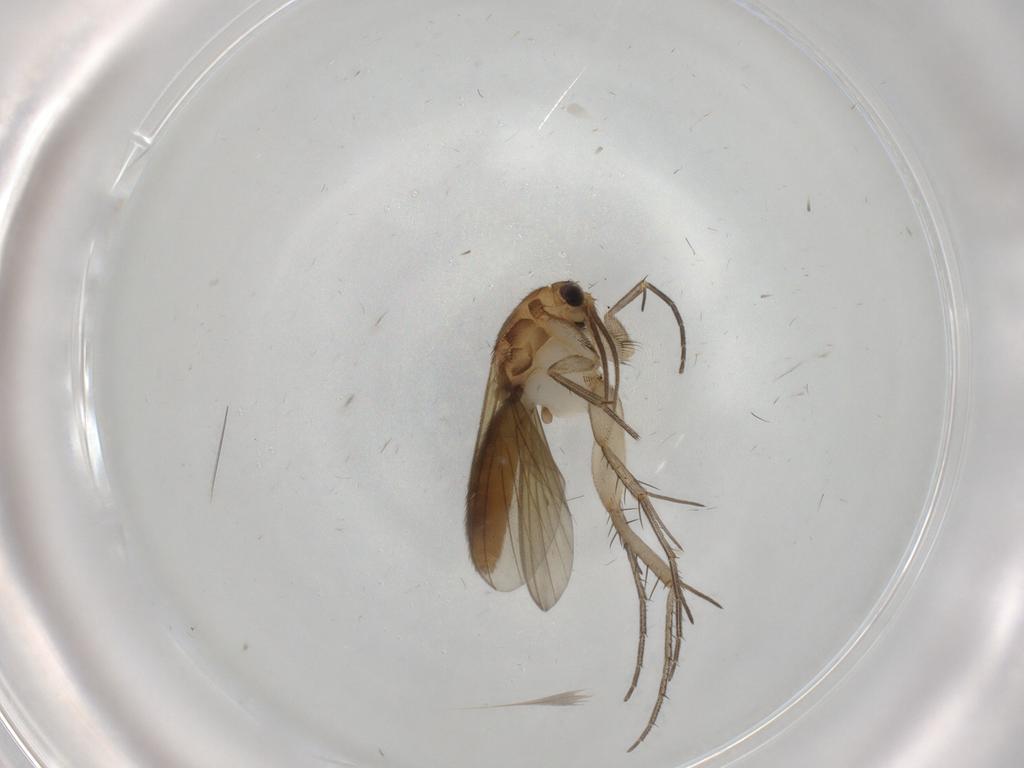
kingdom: Animalia
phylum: Arthropoda
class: Insecta
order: Diptera
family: Mycetophilidae
